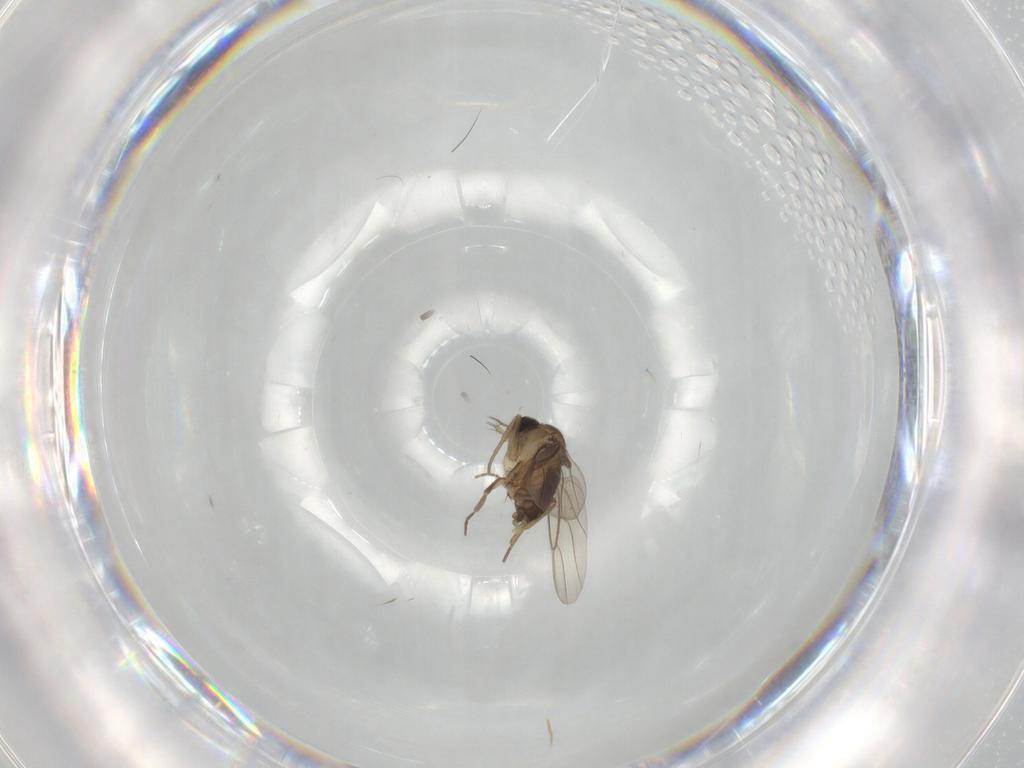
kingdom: Animalia
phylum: Arthropoda
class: Insecta
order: Diptera
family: Phoridae
